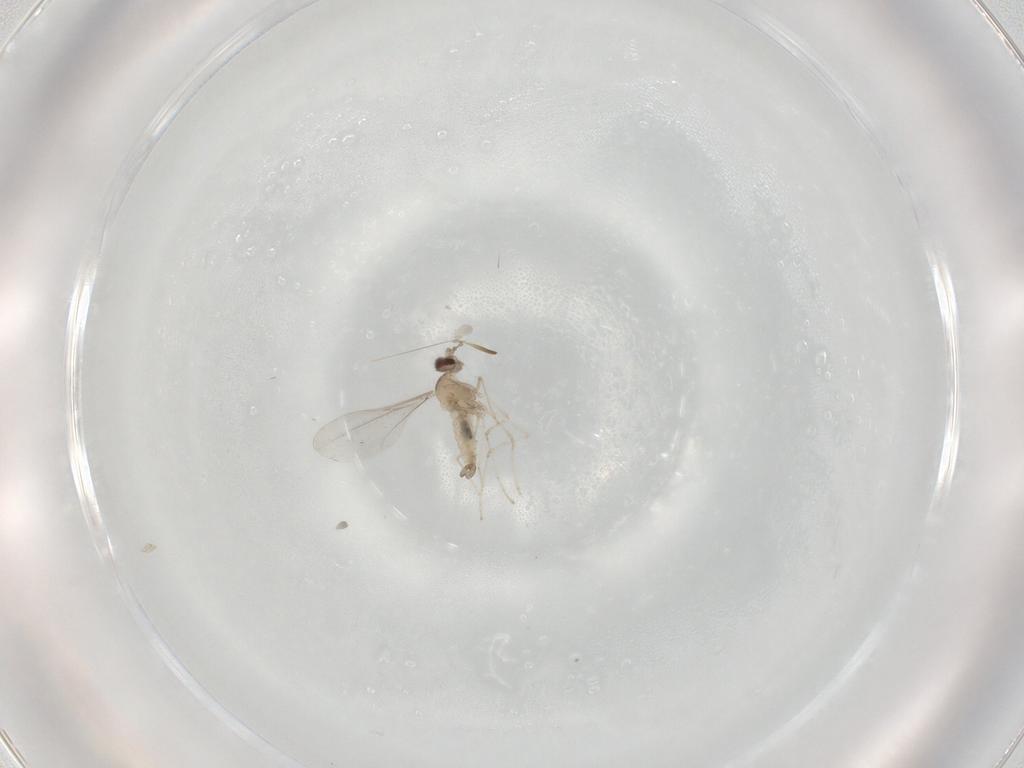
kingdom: Animalia
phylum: Arthropoda
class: Insecta
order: Diptera
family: Cecidomyiidae
